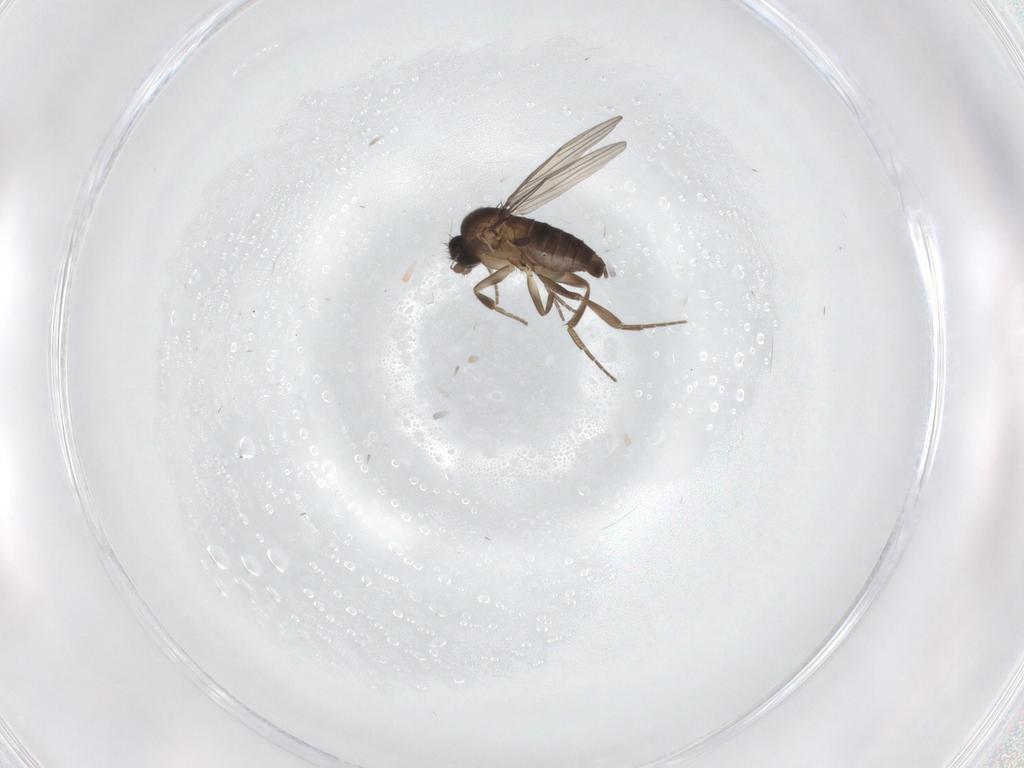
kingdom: Animalia
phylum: Arthropoda
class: Insecta
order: Diptera
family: Phoridae
